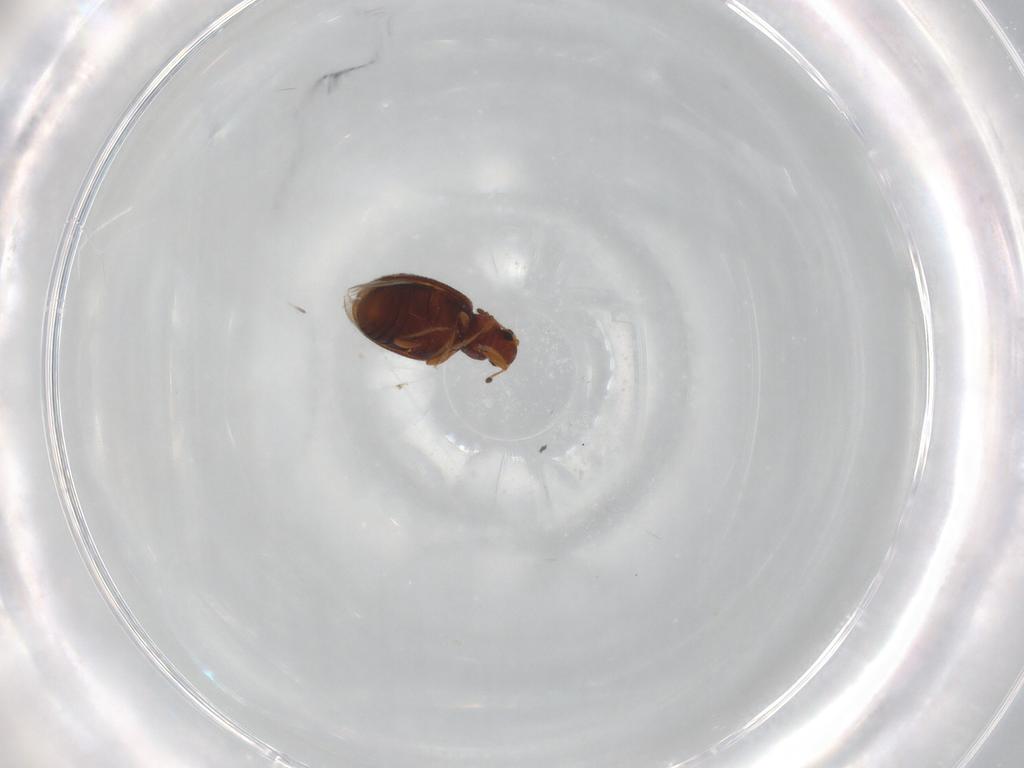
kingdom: Animalia
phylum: Arthropoda
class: Insecta
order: Coleoptera
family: Latridiidae
